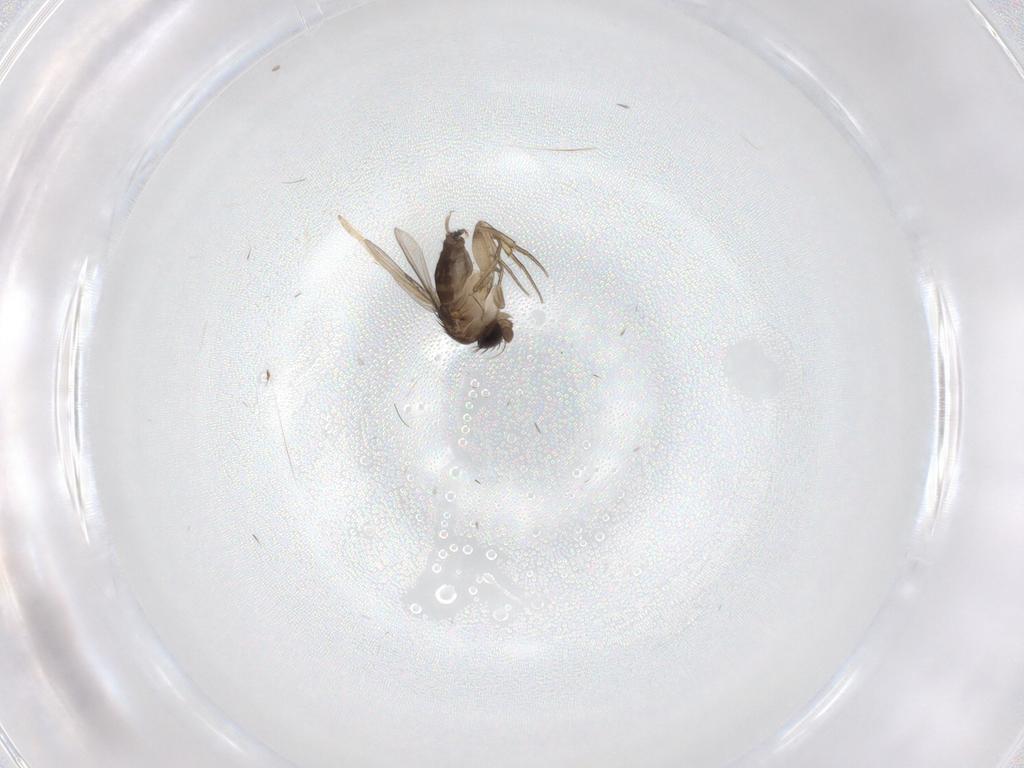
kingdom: Animalia
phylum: Arthropoda
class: Insecta
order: Diptera
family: Phoridae
